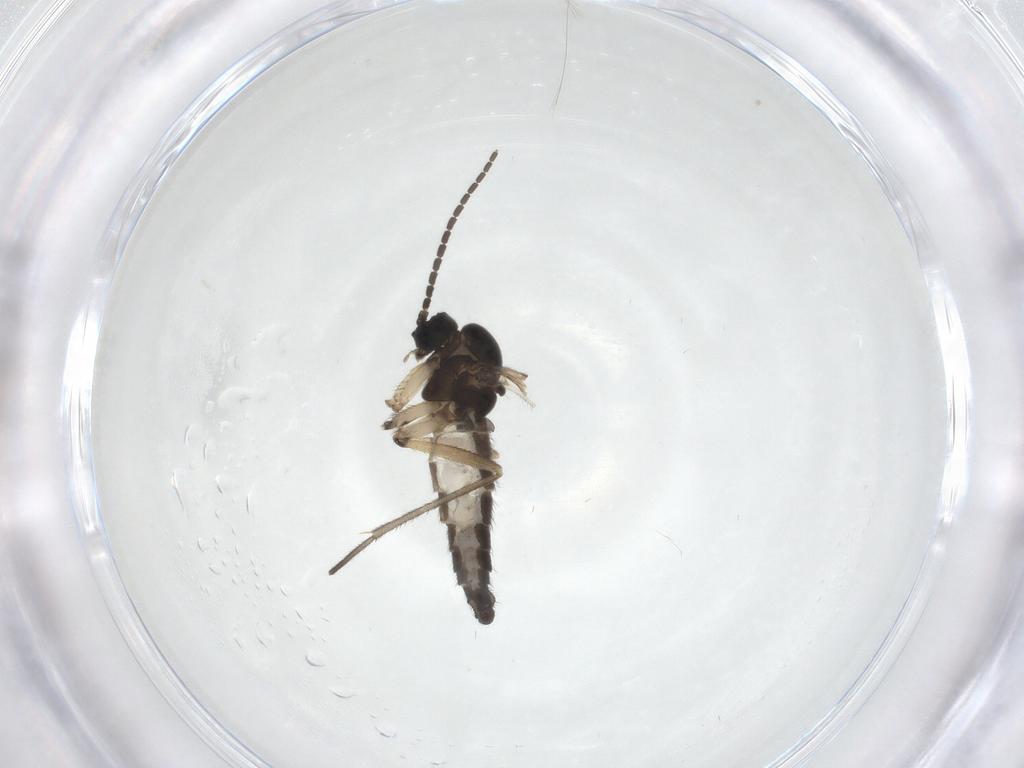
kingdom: Animalia
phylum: Arthropoda
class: Insecta
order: Diptera
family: Sciaridae
